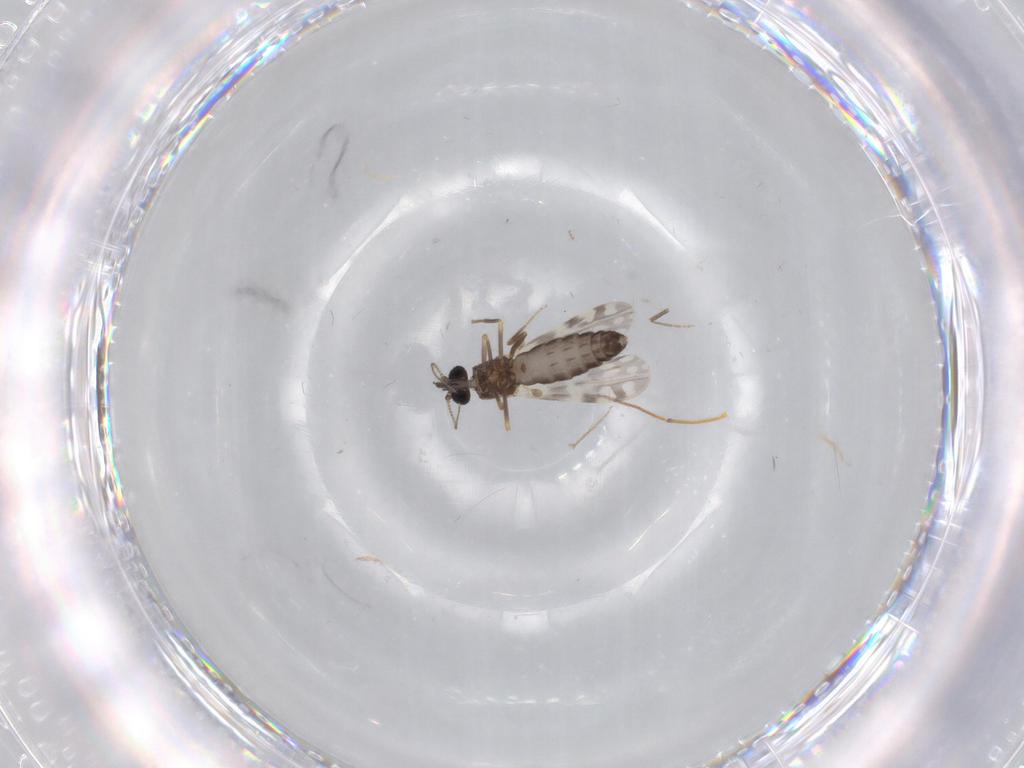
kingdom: Animalia
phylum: Arthropoda
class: Insecta
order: Diptera
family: Ceratopogonidae
